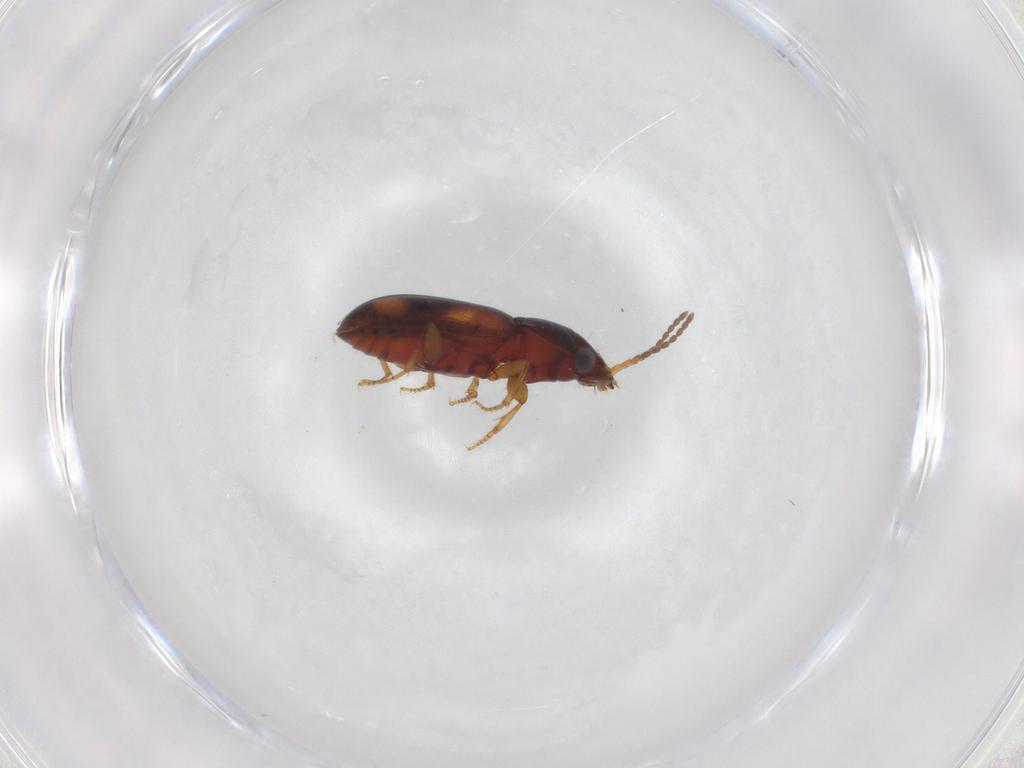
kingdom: Animalia
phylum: Arthropoda
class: Insecta
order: Coleoptera
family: Carabidae
